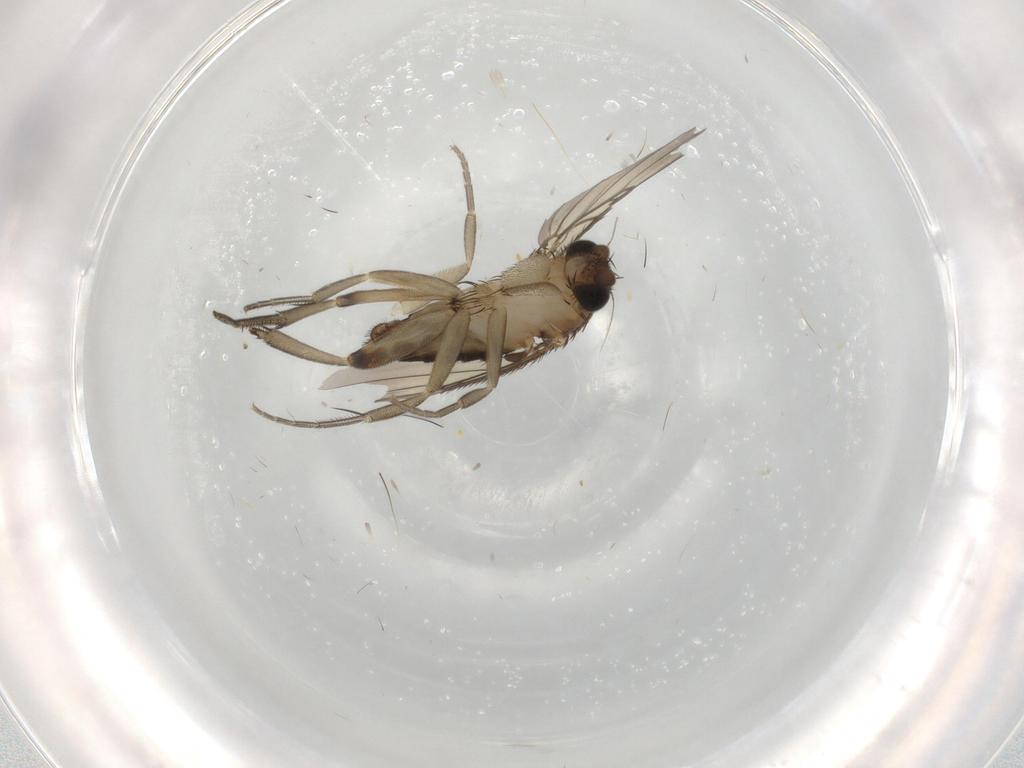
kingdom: Animalia
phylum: Arthropoda
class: Insecta
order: Diptera
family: Phoridae
